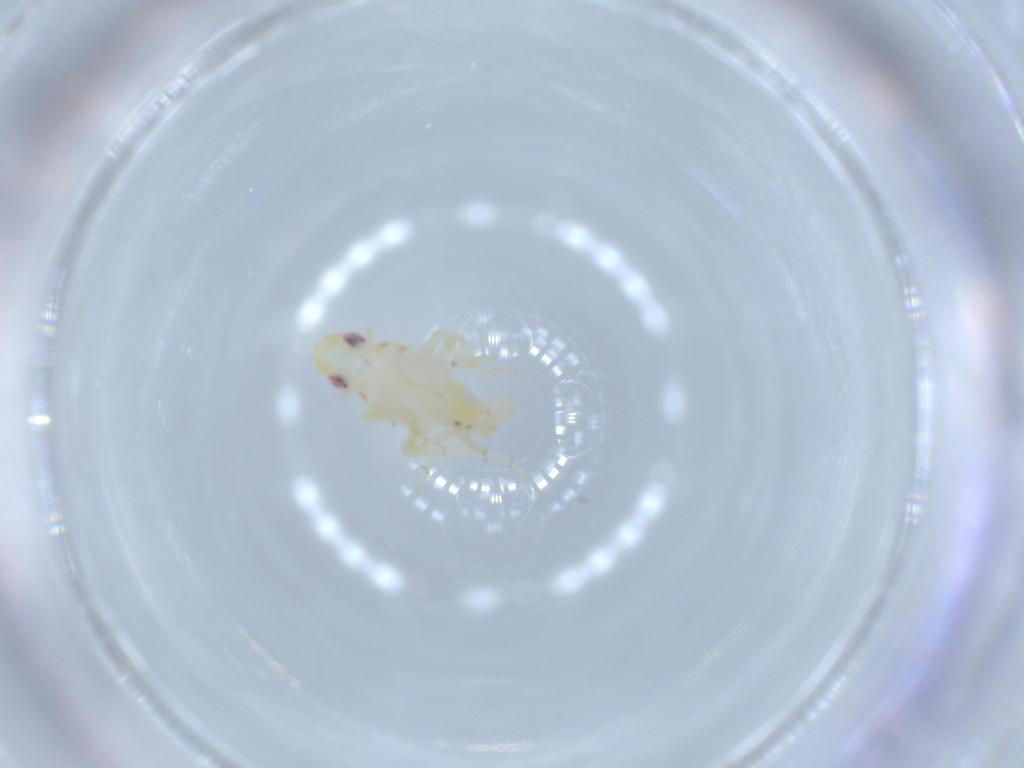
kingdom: Animalia
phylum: Arthropoda
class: Insecta
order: Hemiptera
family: Tropiduchidae
